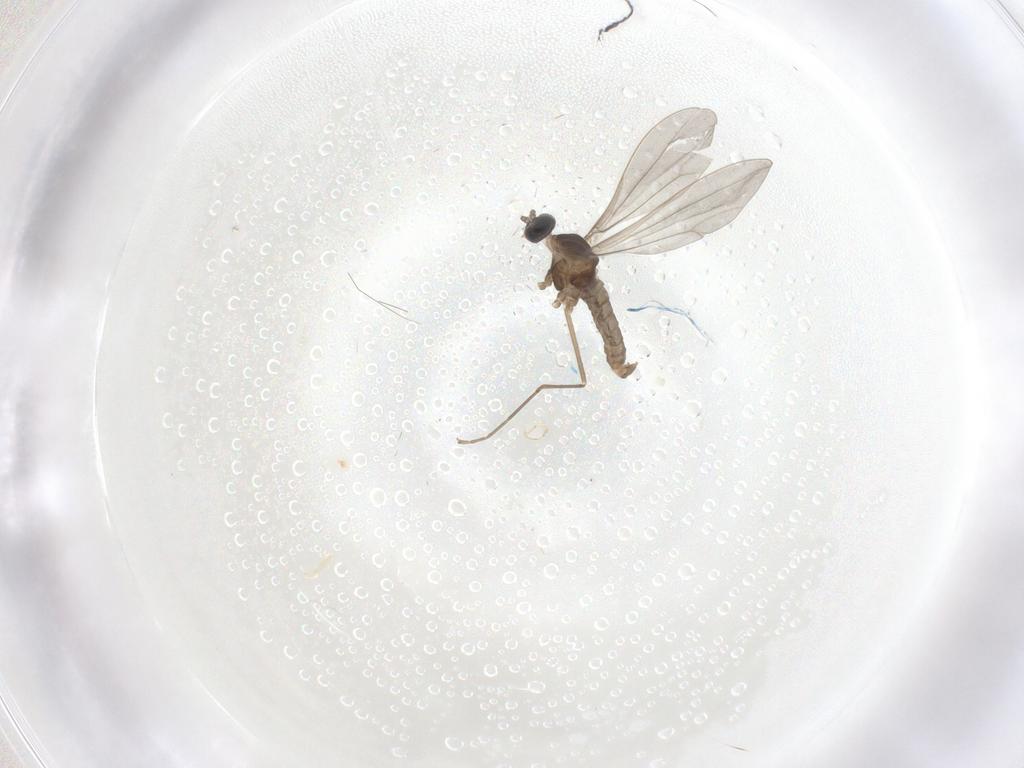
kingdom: Animalia
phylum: Arthropoda
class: Insecta
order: Diptera
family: Cecidomyiidae
